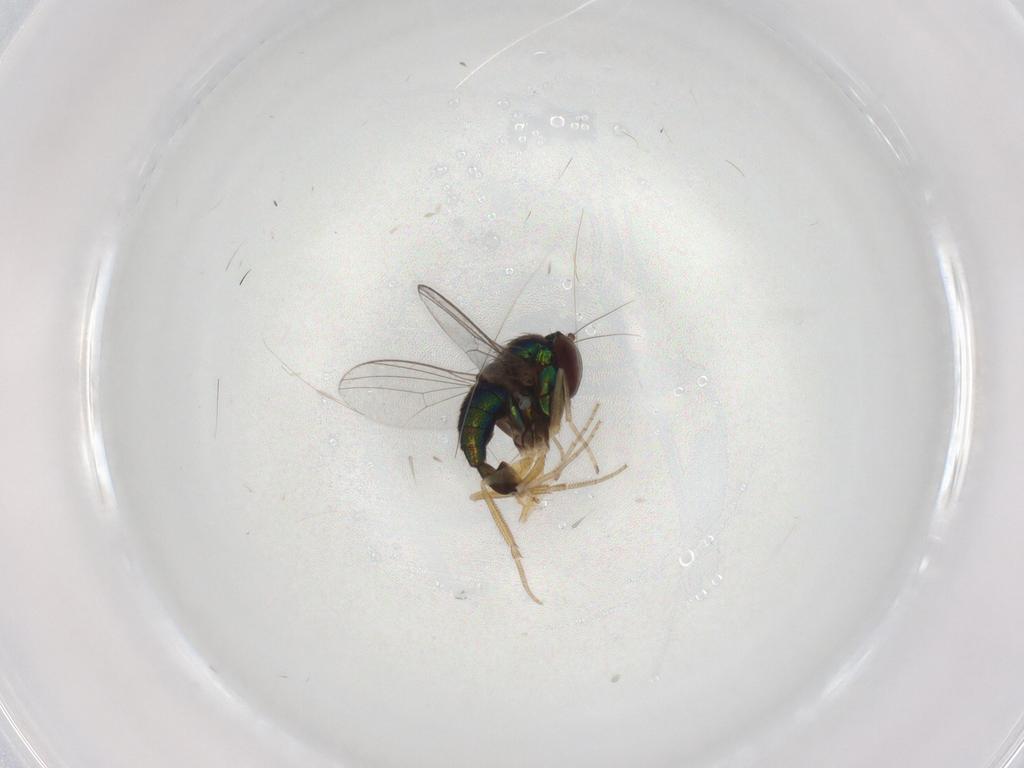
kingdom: Animalia
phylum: Arthropoda
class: Insecta
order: Diptera
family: Dolichopodidae
